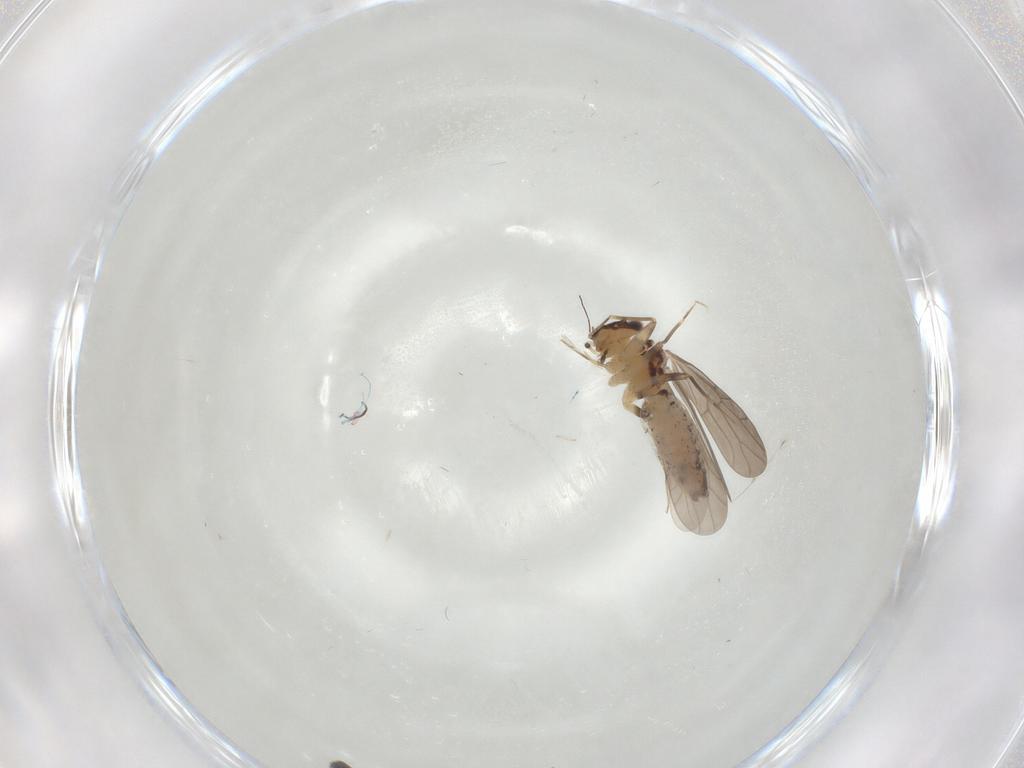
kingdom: Animalia
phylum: Arthropoda
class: Insecta
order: Psocodea
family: Lepidopsocidae
